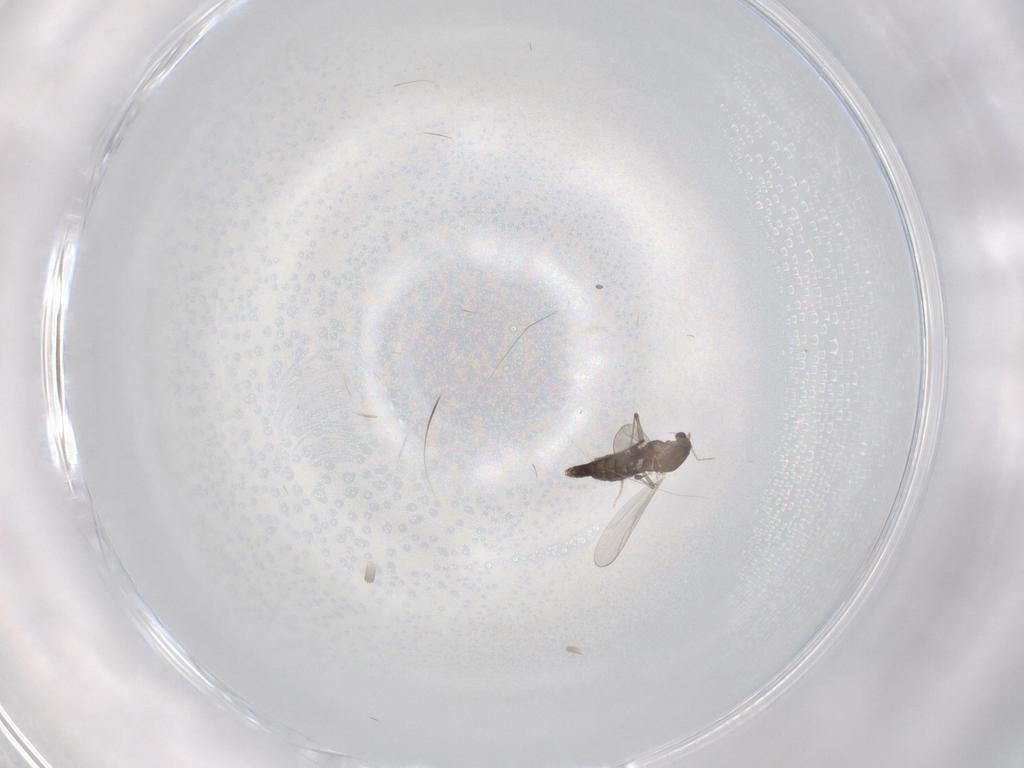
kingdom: Animalia
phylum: Arthropoda
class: Insecta
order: Diptera
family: Chironomidae
